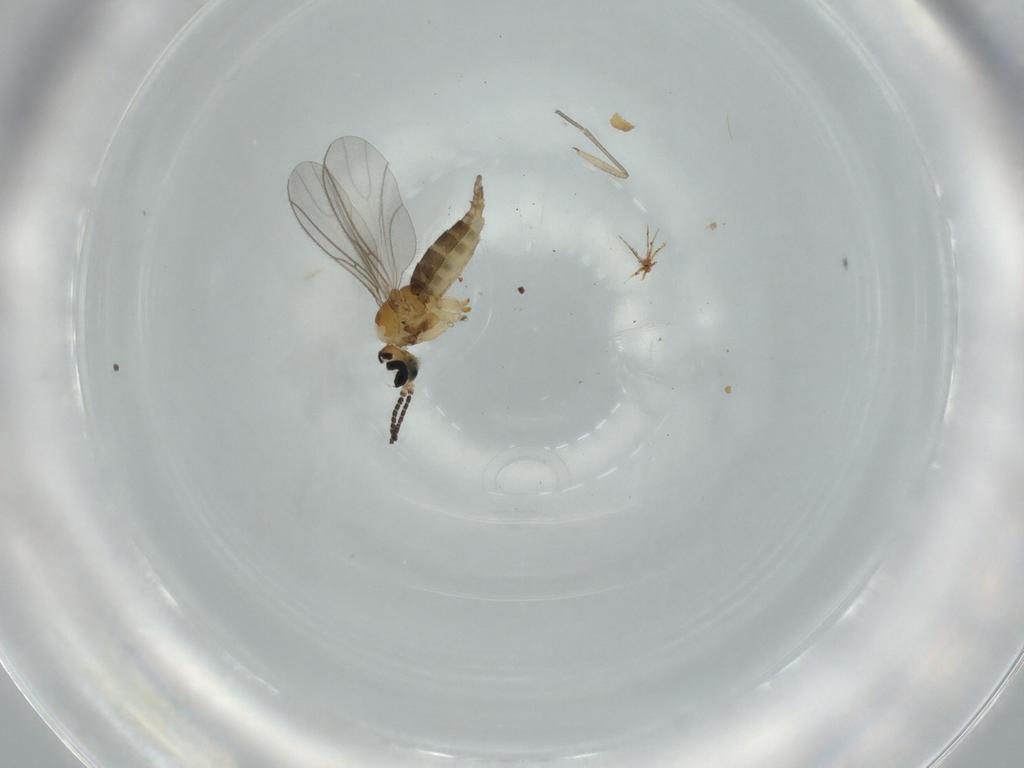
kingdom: Animalia
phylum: Arthropoda
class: Insecta
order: Diptera
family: Sciaridae
